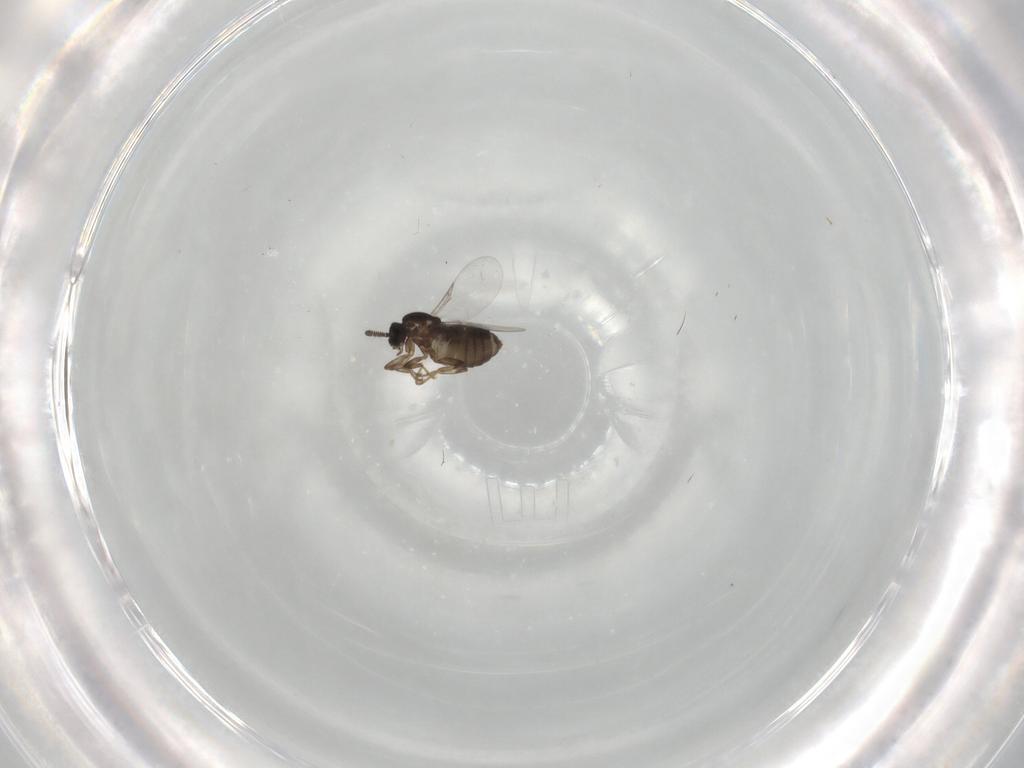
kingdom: Animalia
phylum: Arthropoda
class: Insecta
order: Diptera
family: Scatopsidae
